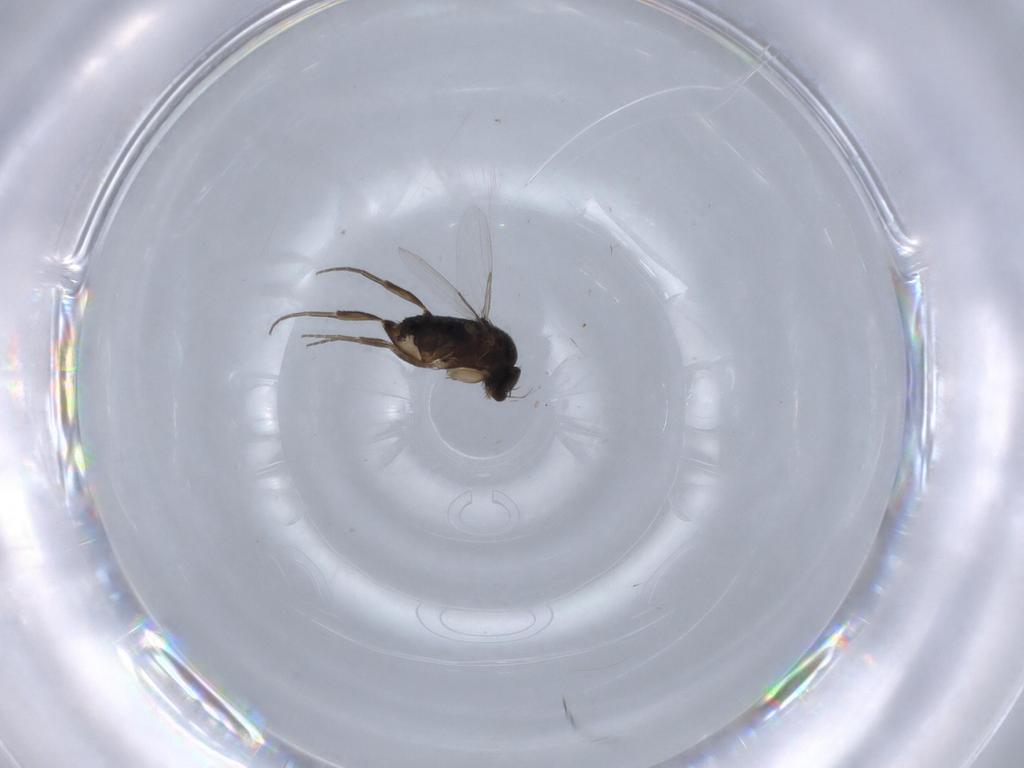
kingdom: Animalia
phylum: Arthropoda
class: Insecta
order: Diptera
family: Phoridae
